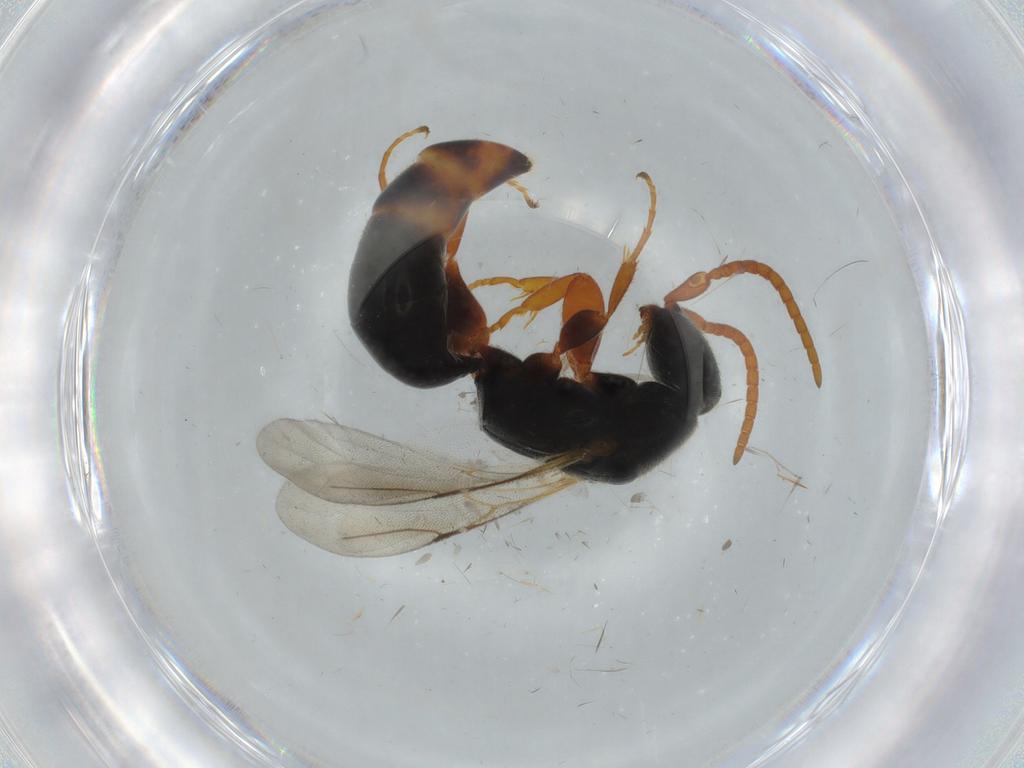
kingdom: Animalia
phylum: Arthropoda
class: Insecta
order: Hymenoptera
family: Bethylidae
